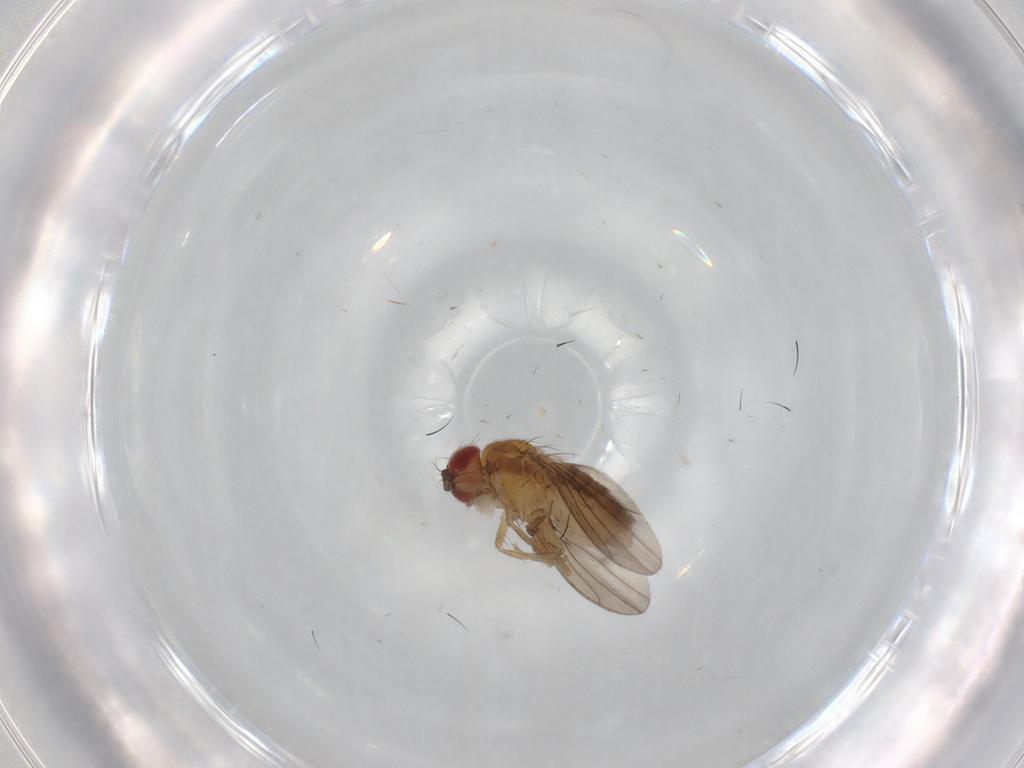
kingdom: Animalia
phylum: Arthropoda
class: Insecta
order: Diptera
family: Drosophilidae
